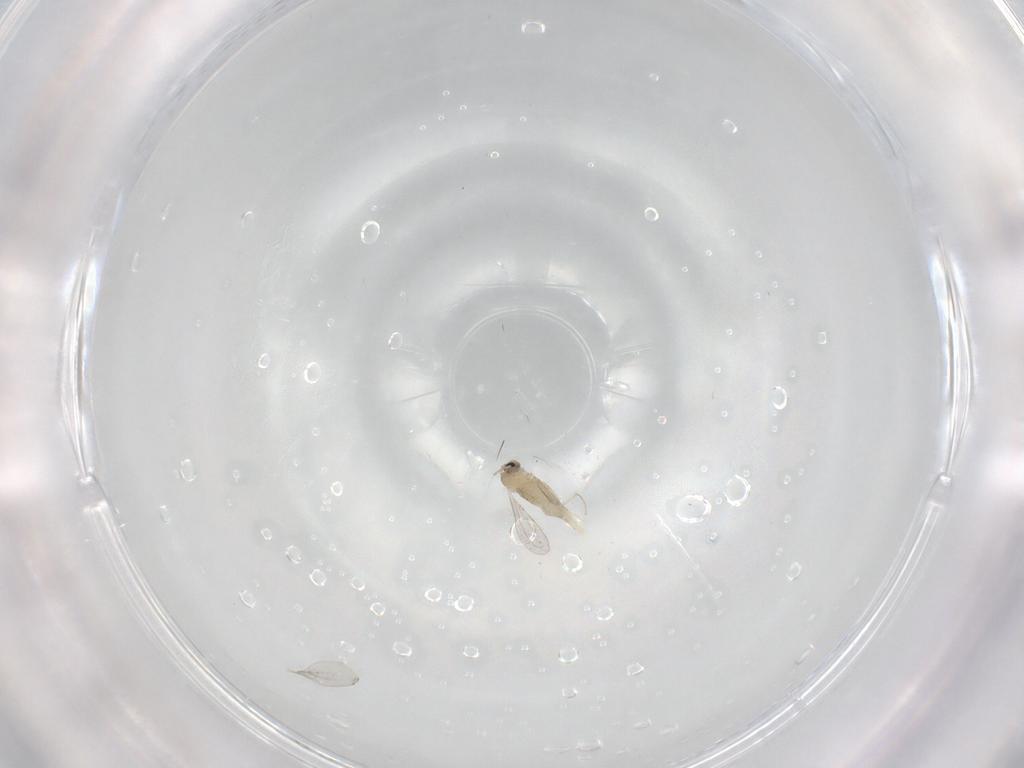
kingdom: Animalia
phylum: Arthropoda
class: Insecta
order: Diptera
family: Cecidomyiidae
